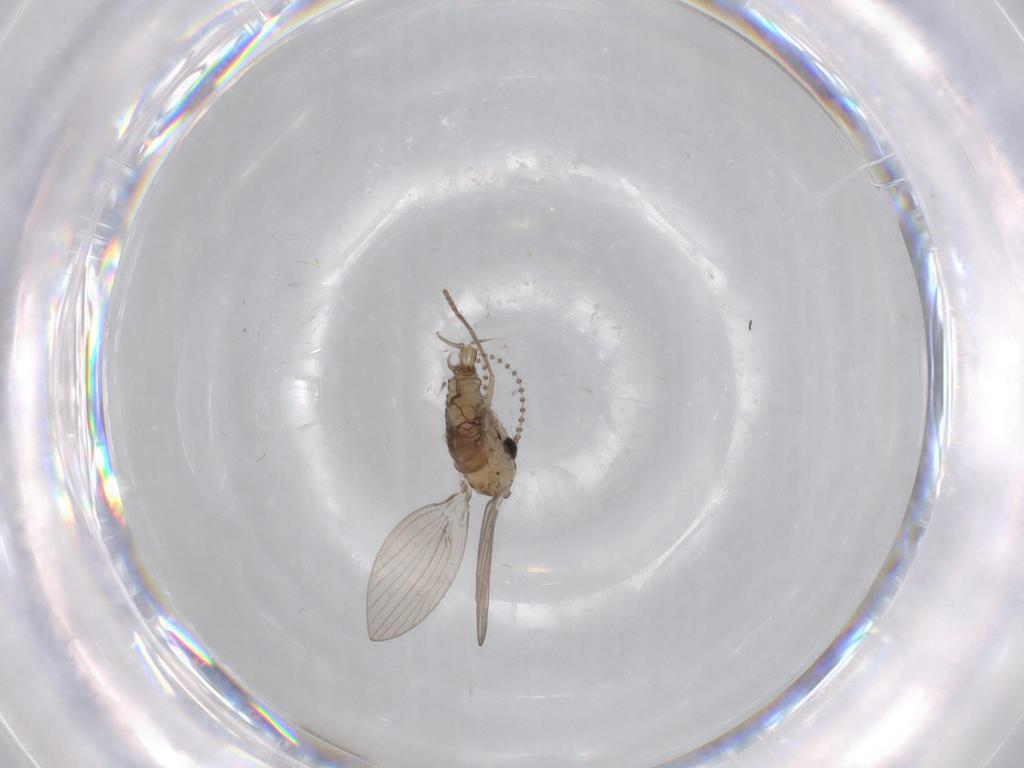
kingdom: Animalia
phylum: Arthropoda
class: Insecta
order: Diptera
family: Psychodidae
